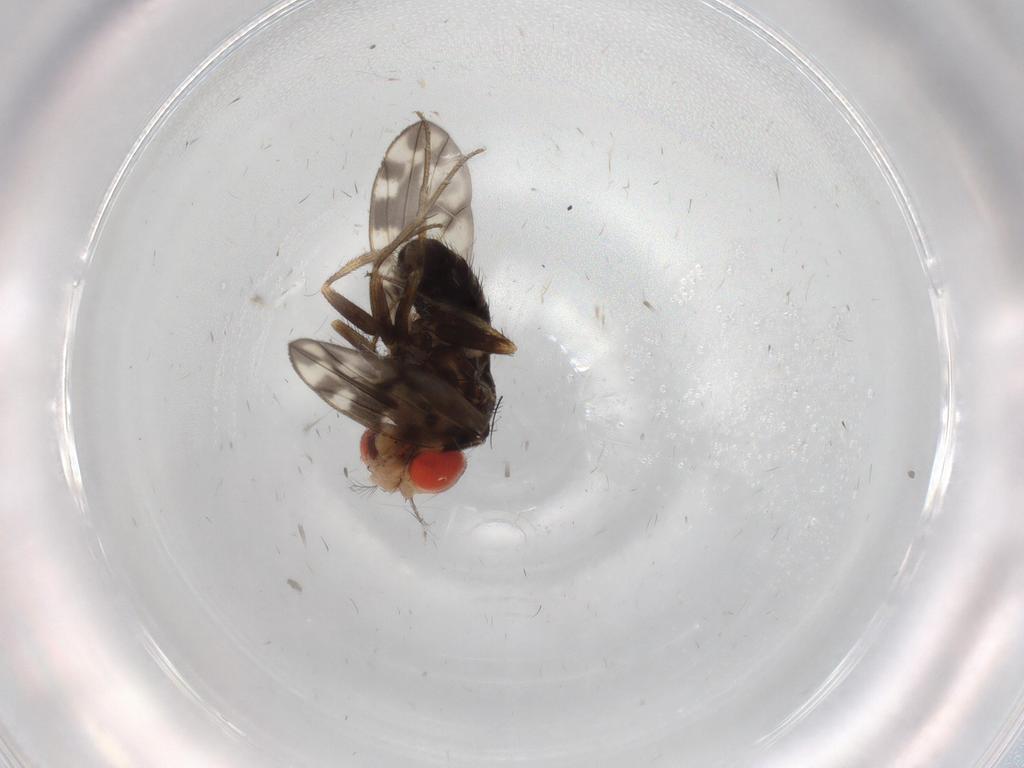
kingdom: Animalia
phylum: Arthropoda
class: Insecta
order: Diptera
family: Drosophilidae
